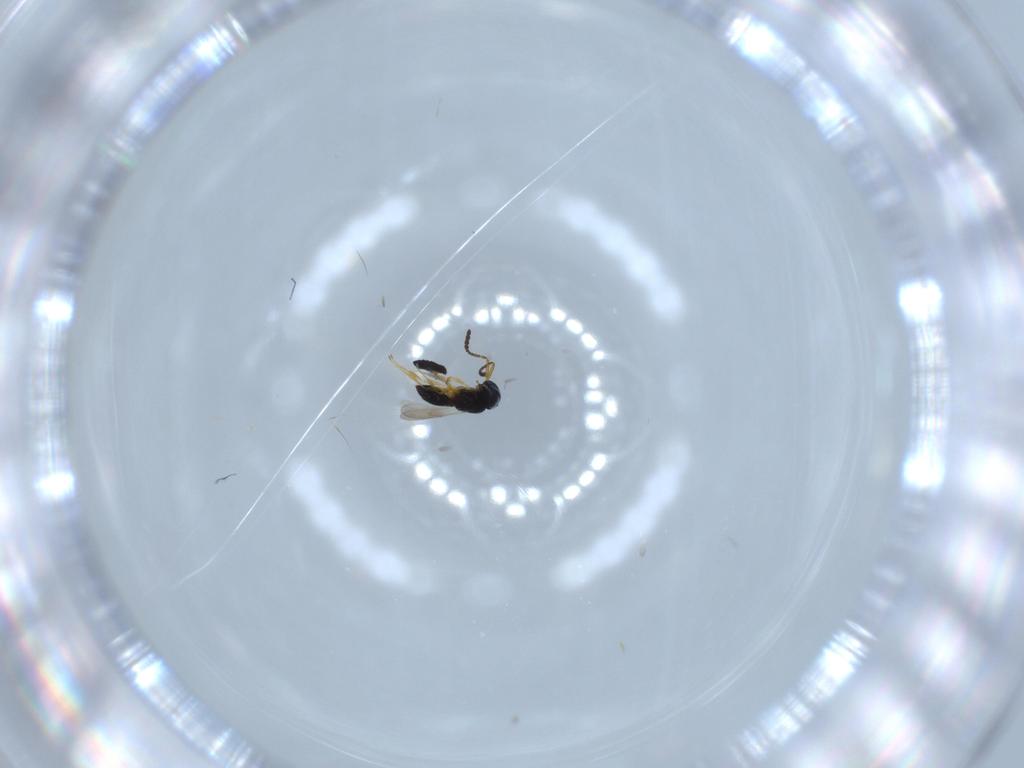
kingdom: Animalia
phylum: Arthropoda
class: Insecta
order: Hymenoptera
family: Scelionidae
